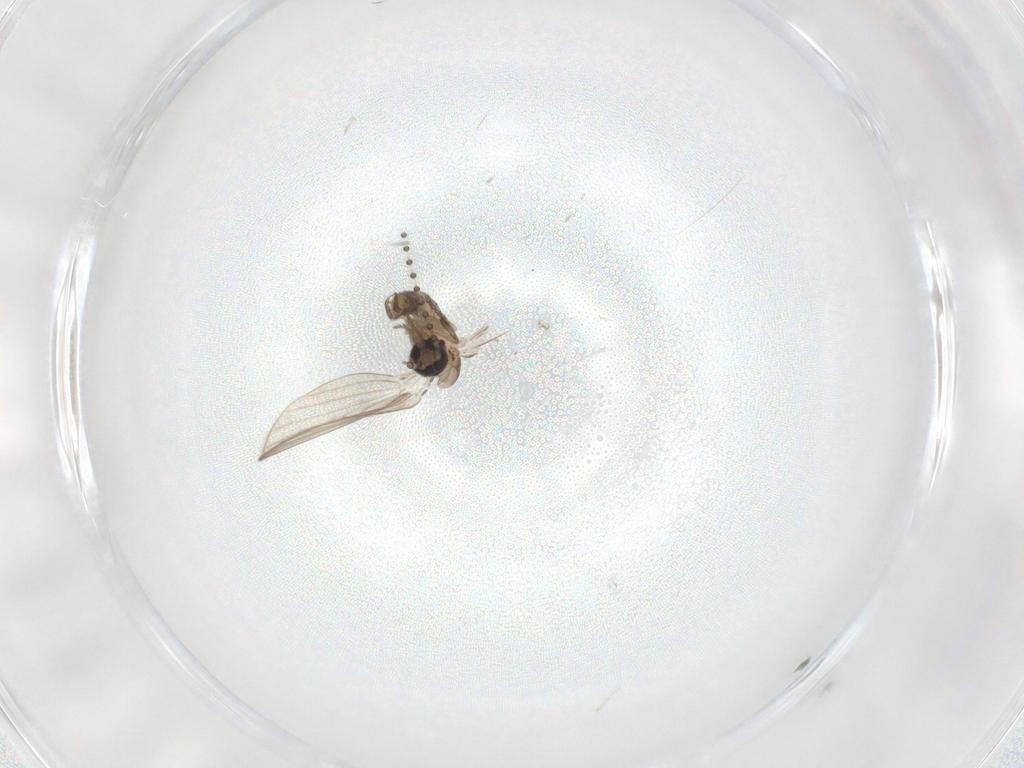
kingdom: Animalia
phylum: Arthropoda
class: Insecta
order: Diptera
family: Psychodidae
